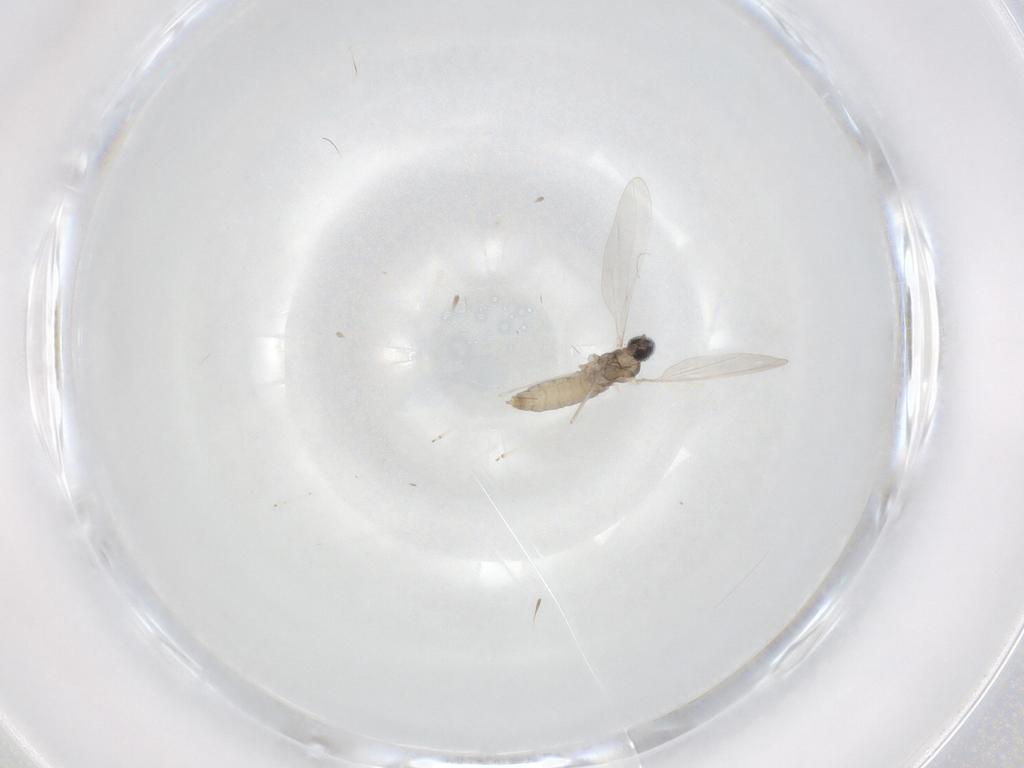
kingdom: Animalia
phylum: Arthropoda
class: Insecta
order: Diptera
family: Cecidomyiidae
